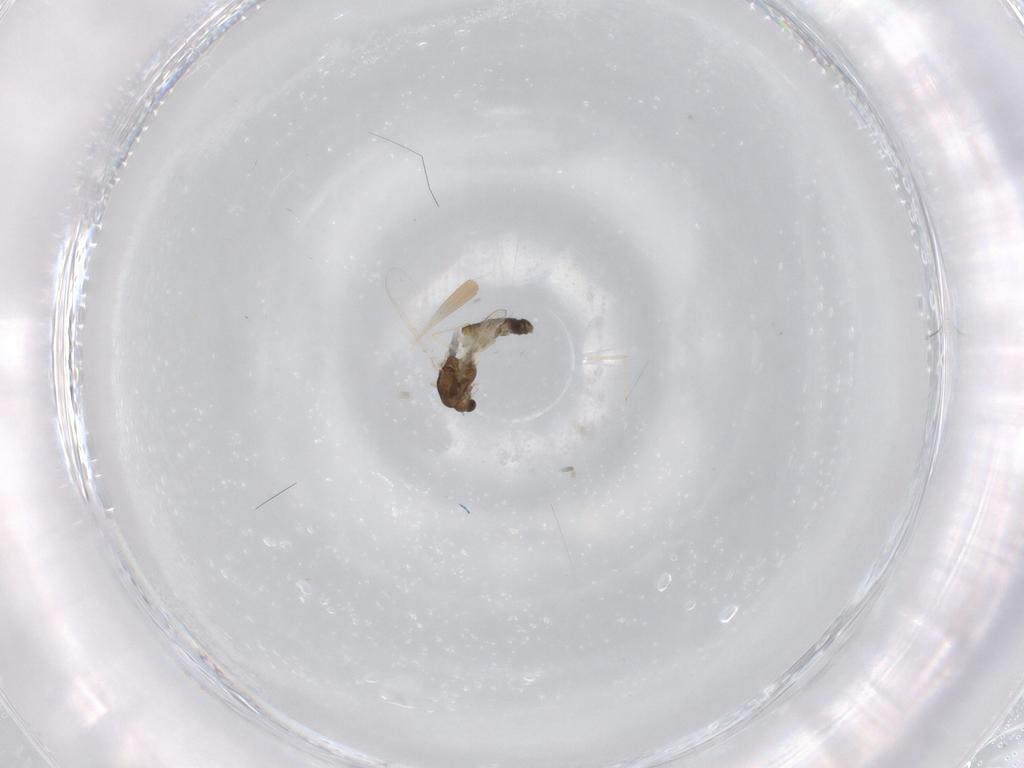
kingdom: Animalia
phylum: Arthropoda
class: Insecta
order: Diptera
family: Chironomidae
